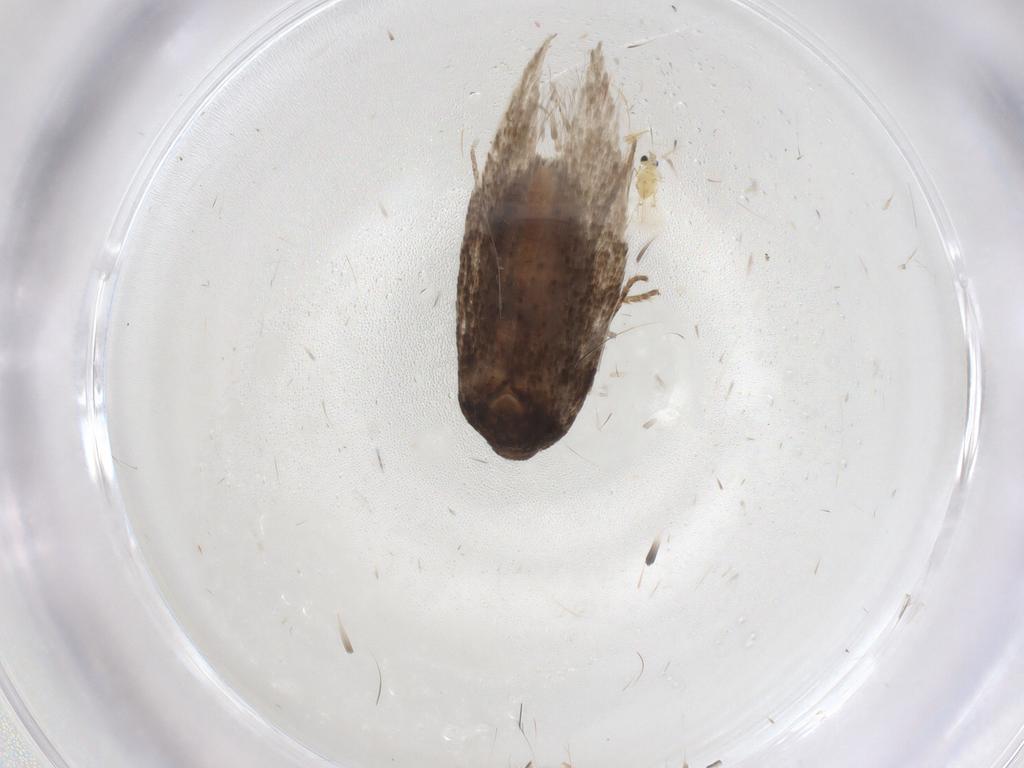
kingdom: Animalia
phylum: Arthropoda
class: Insecta
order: Lepidoptera
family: Cosmopterigidae
